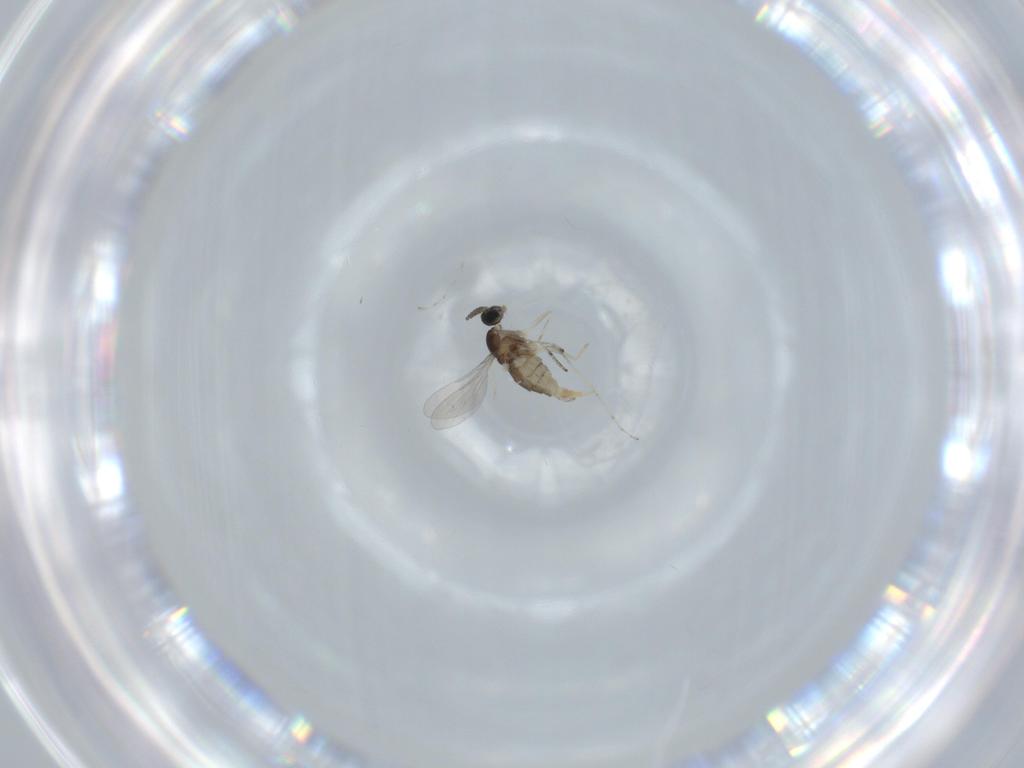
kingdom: Animalia
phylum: Arthropoda
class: Insecta
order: Diptera
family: Cecidomyiidae
